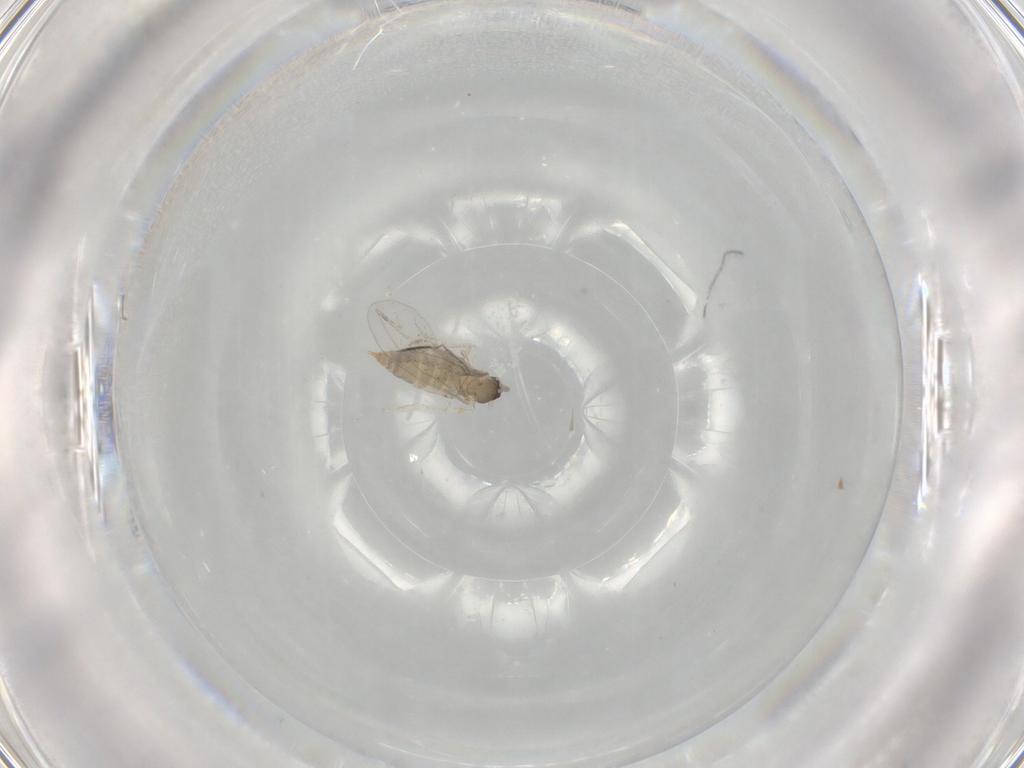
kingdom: Animalia
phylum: Arthropoda
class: Insecta
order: Diptera
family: Cecidomyiidae
